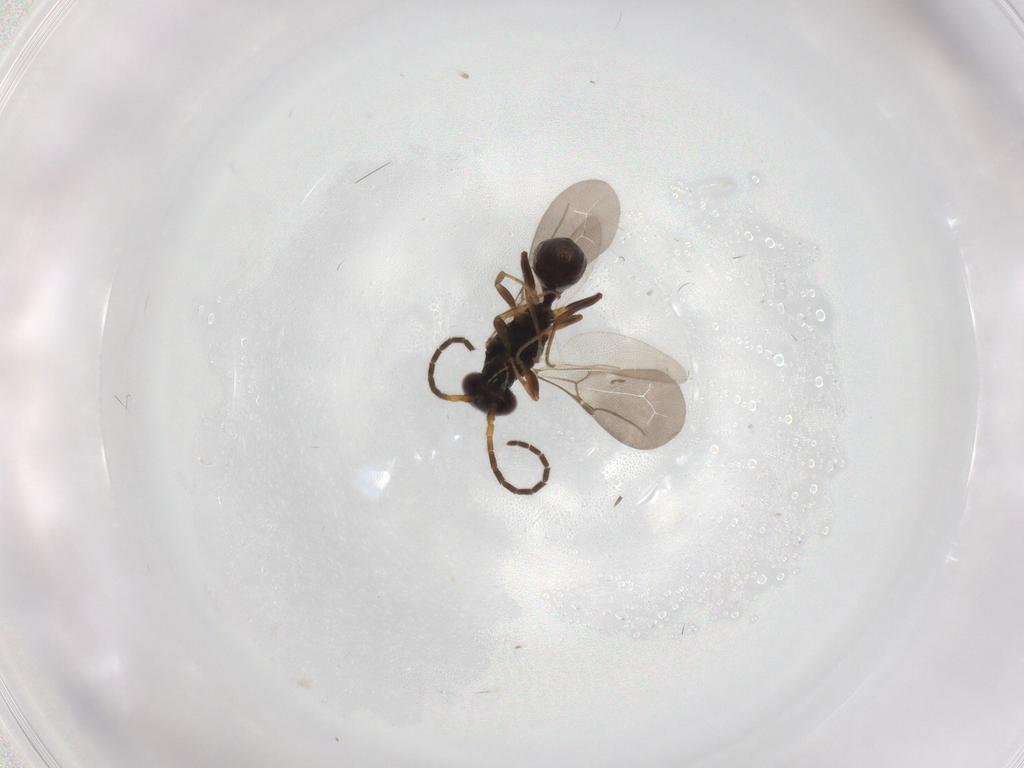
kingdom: Animalia
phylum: Arthropoda
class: Insecta
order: Hymenoptera
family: Bethylidae
